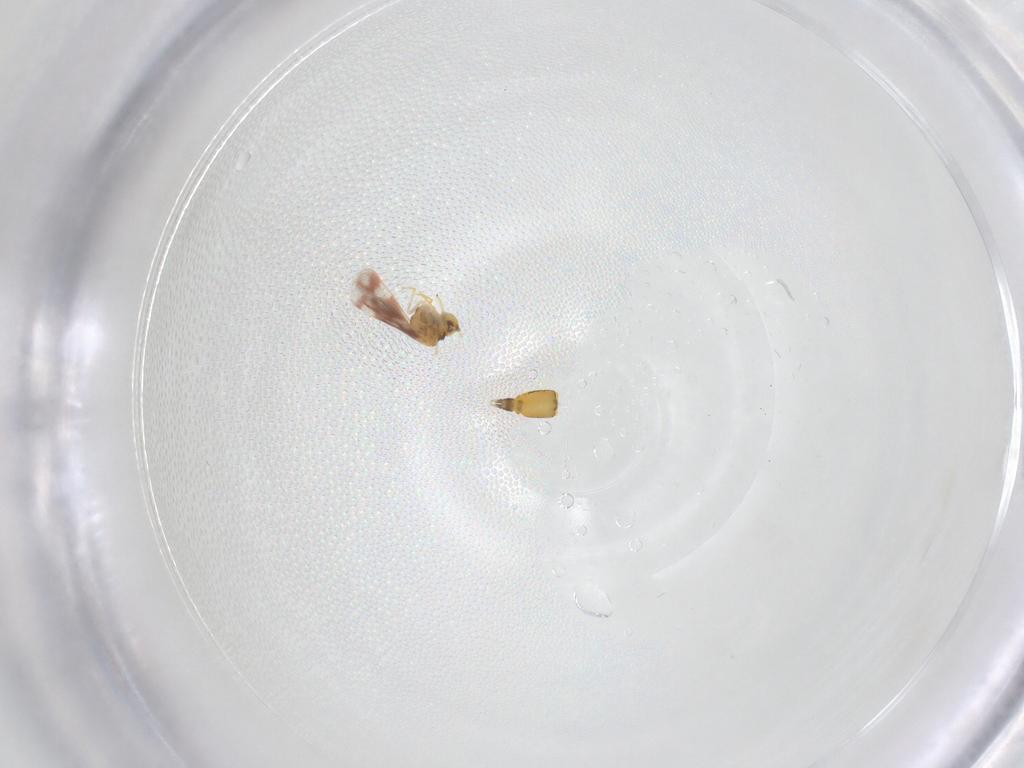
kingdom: Animalia
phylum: Arthropoda
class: Insecta
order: Hemiptera
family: Aleyrodidae
